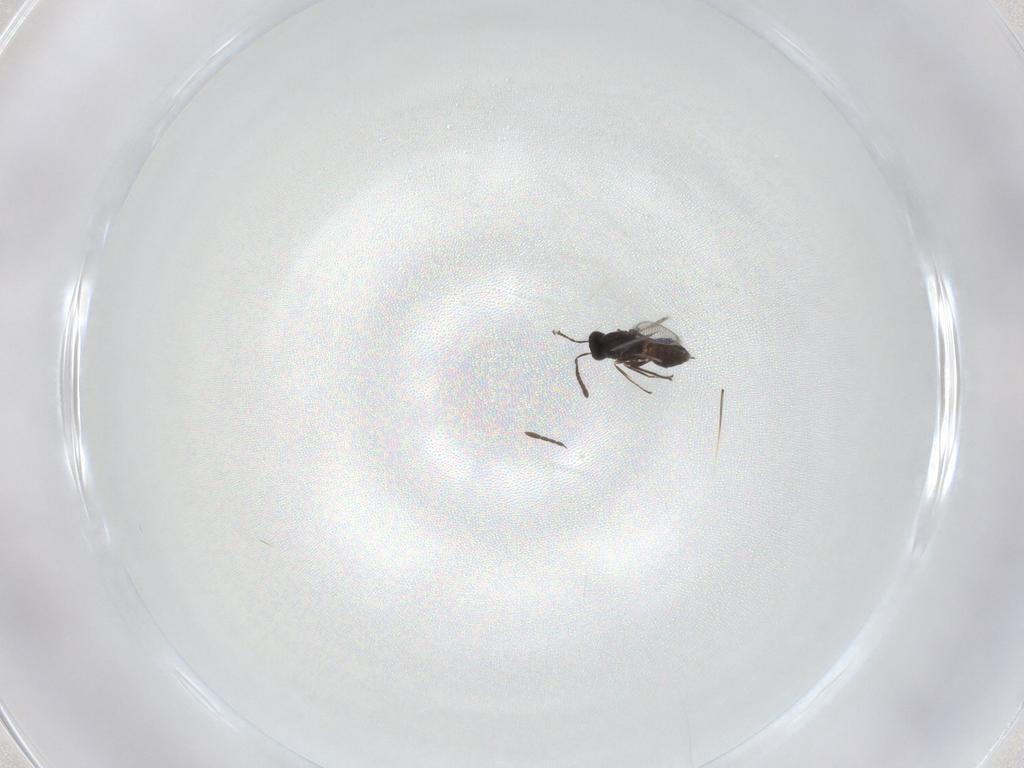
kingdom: Animalia
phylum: Arthropoda
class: Insecta
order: Hymenoptera
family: Mymaridae
